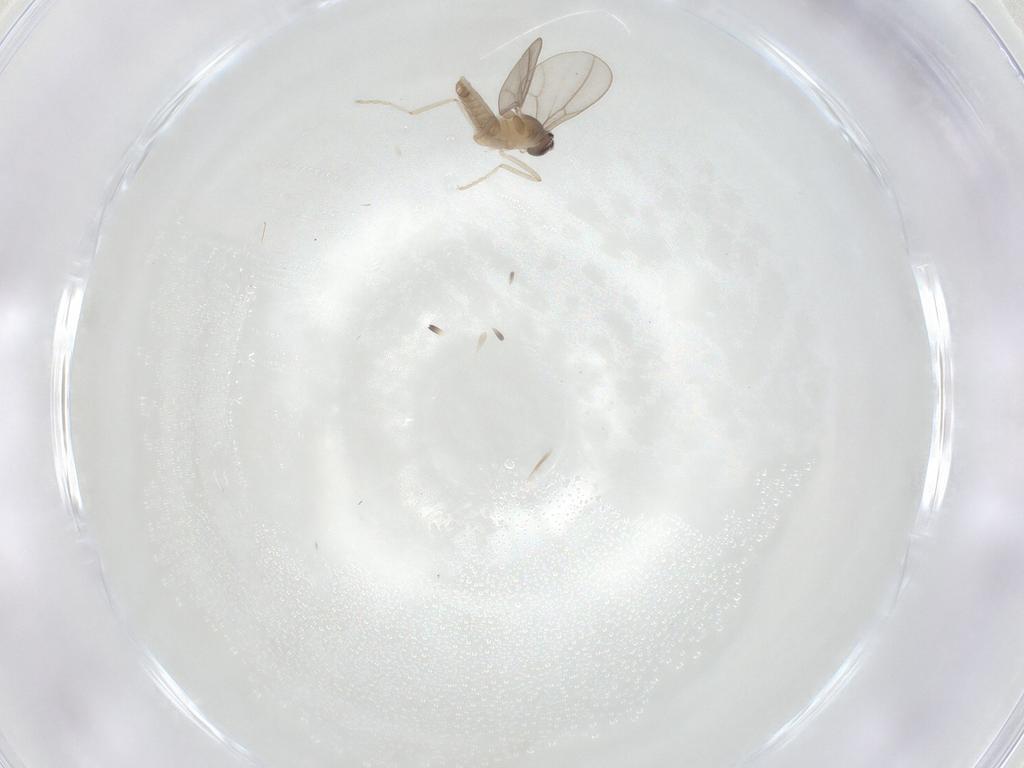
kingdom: Animalia
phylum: Arthropoda
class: Insecta
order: Diptera
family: Cecidomyiidae
